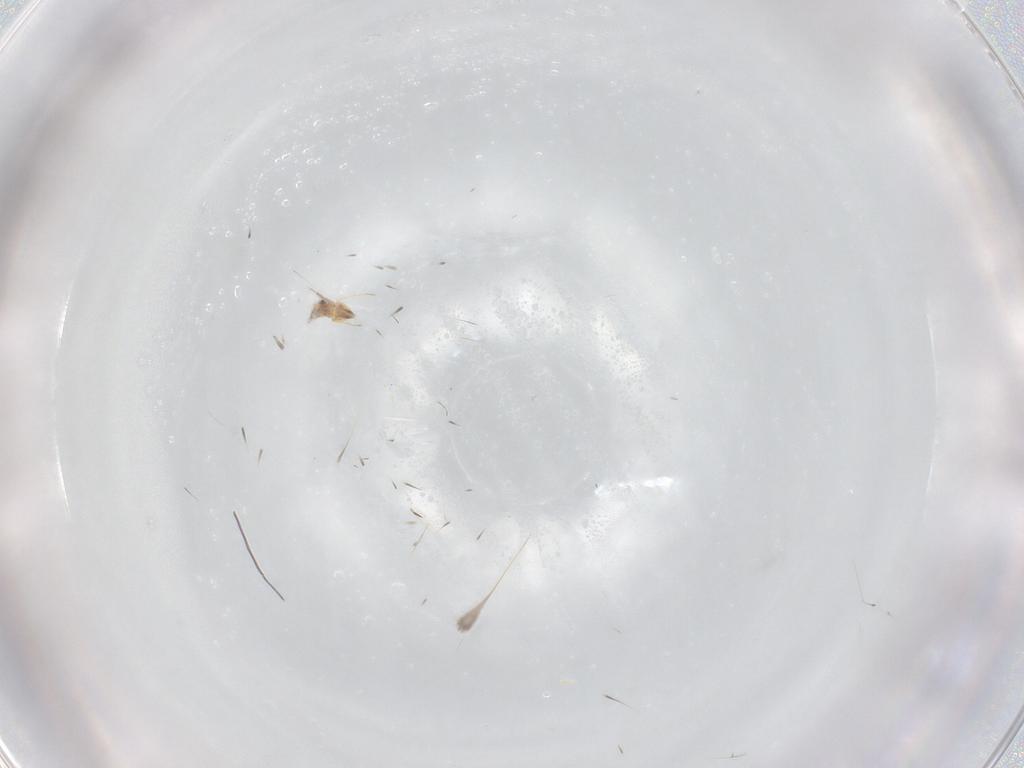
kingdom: Animalia
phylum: Arthropoda
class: Insecta
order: Hymenoptera
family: Mymaridae
